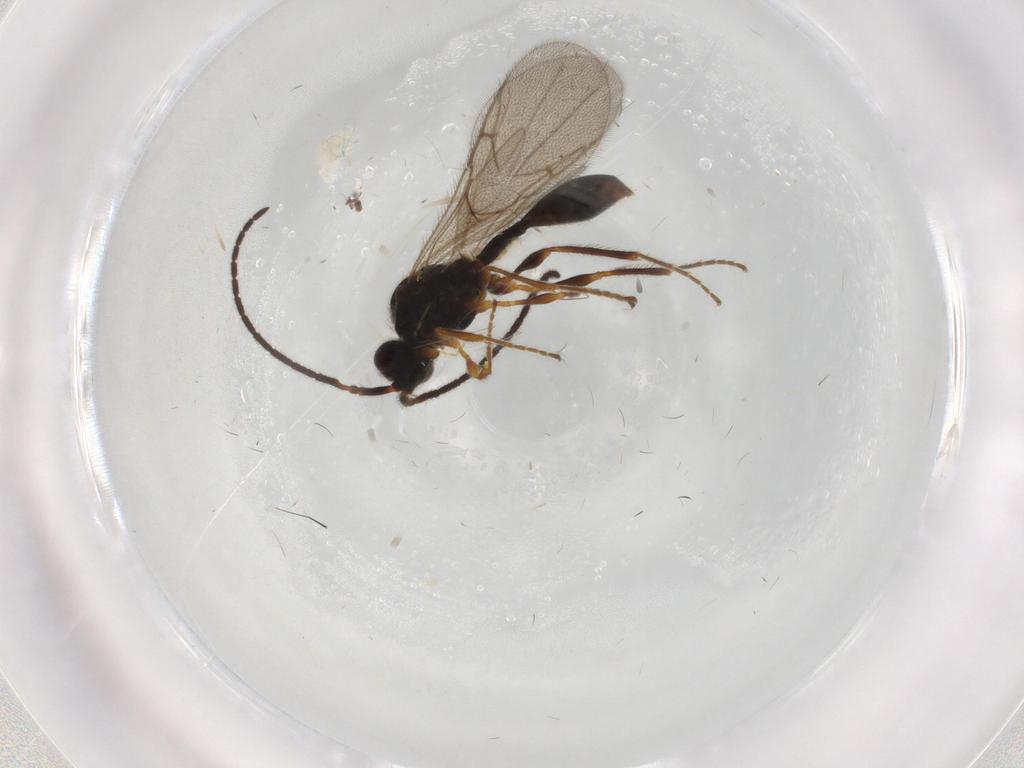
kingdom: Animalia
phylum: Arthropoda
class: Insecta
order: Hymenoptera
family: Formicidae
